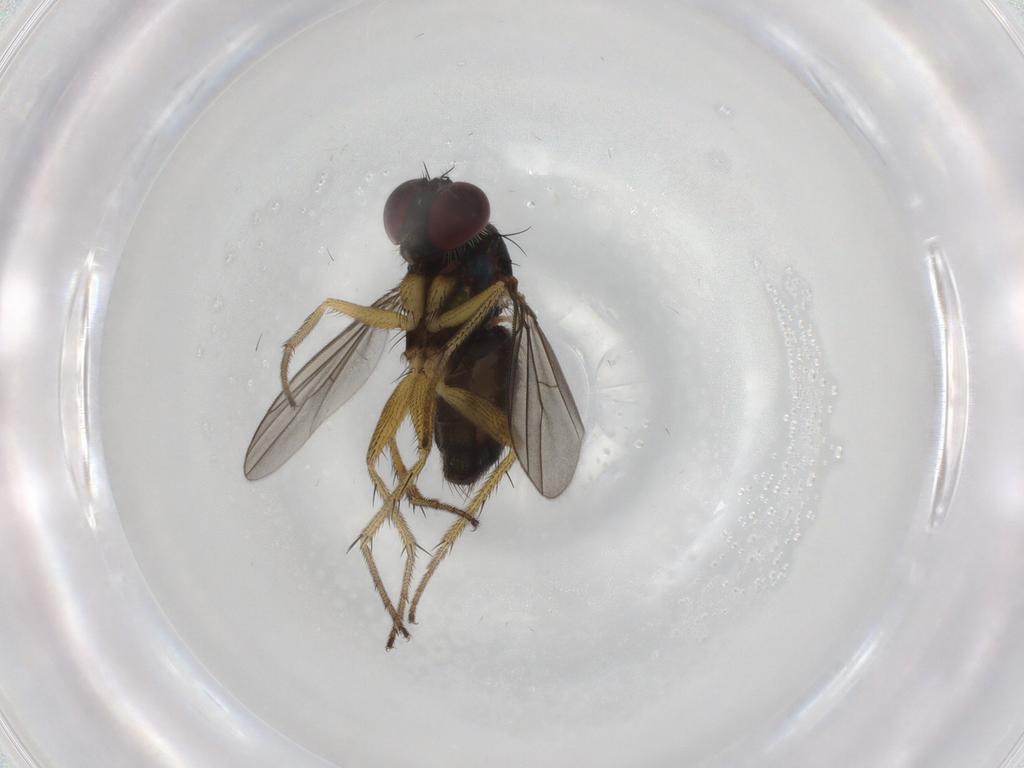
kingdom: Animalia
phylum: Arthropoda
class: Insecta
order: Diptera
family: Dolichopodidae
